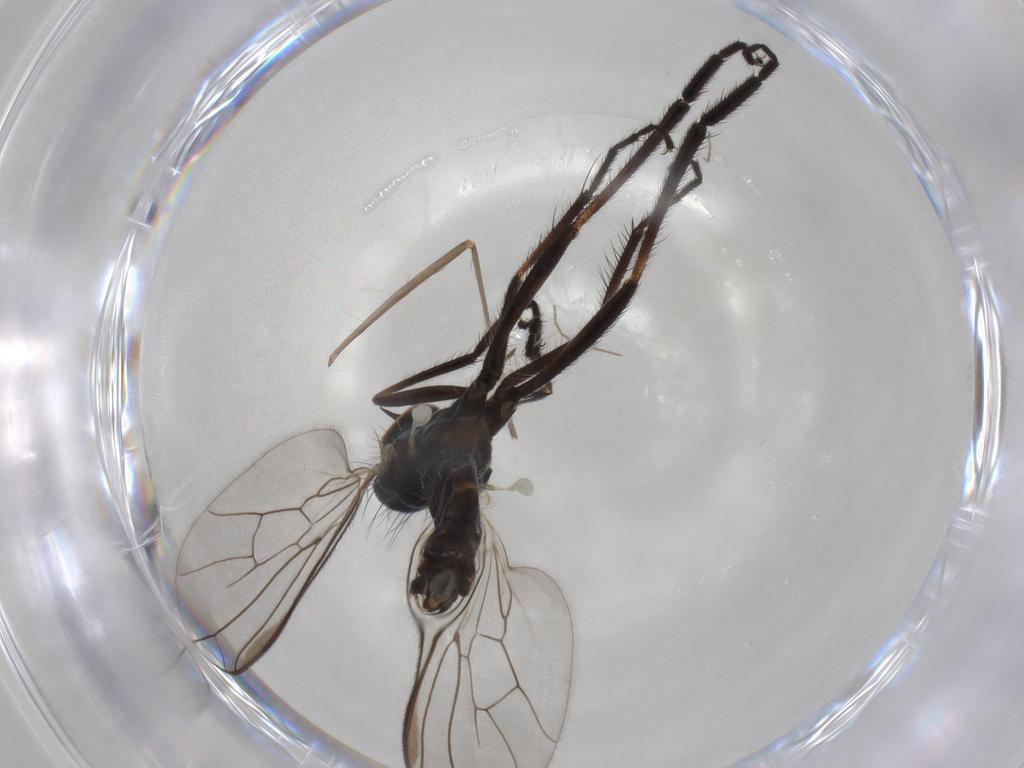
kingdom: Animalia
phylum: Arthropoda
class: Insecta
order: Diptera
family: Empididae
